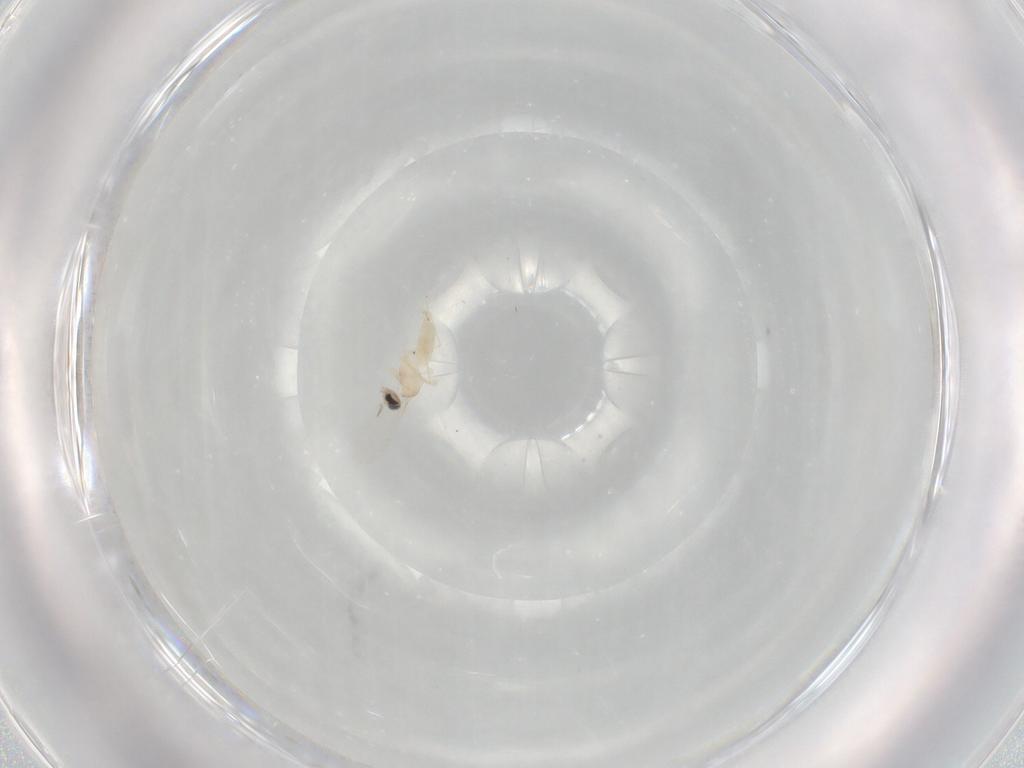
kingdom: Animalia
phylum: Arthropoda
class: Insecta
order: Diptera
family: Cecidomyiidae
